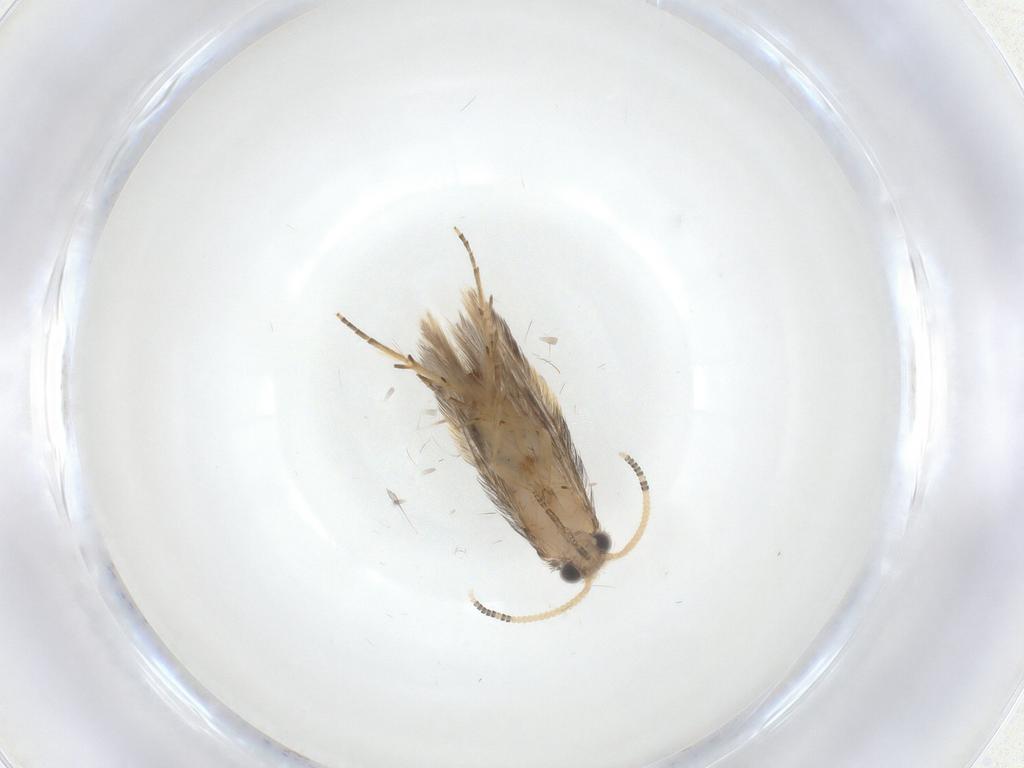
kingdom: Animalia
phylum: Arthropoda
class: Insecta
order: Trichoptera
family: Hydroptilidae
